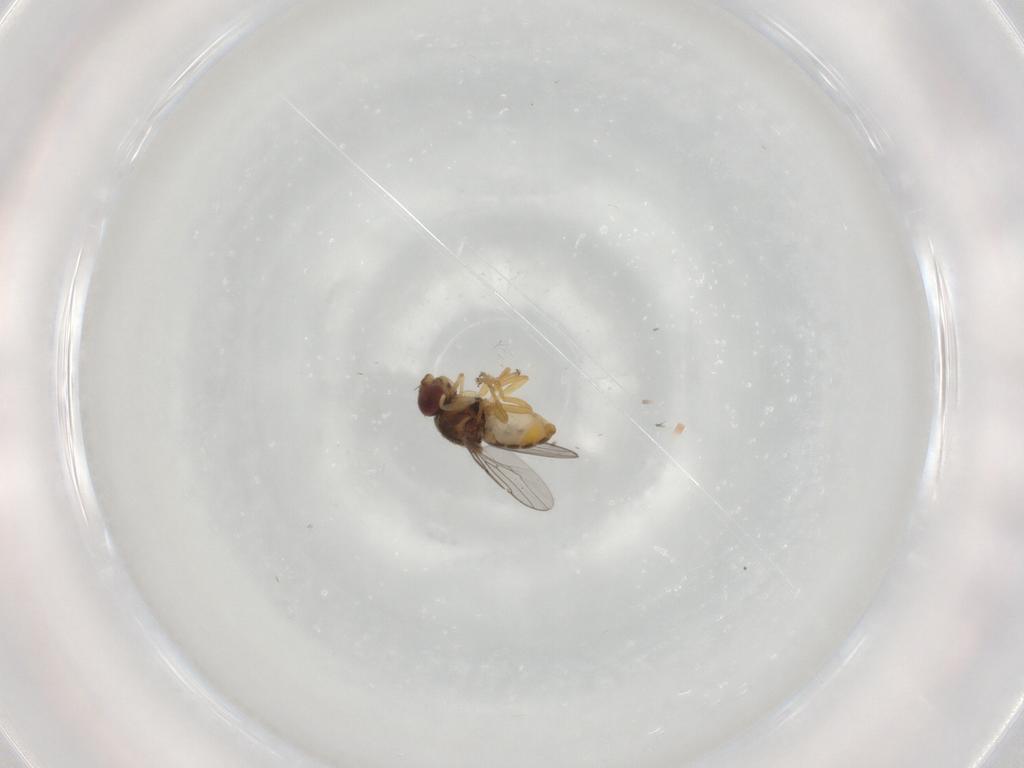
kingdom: Animalia
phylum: Arthropoda
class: Insecta
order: Diptera
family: Chloropidae
